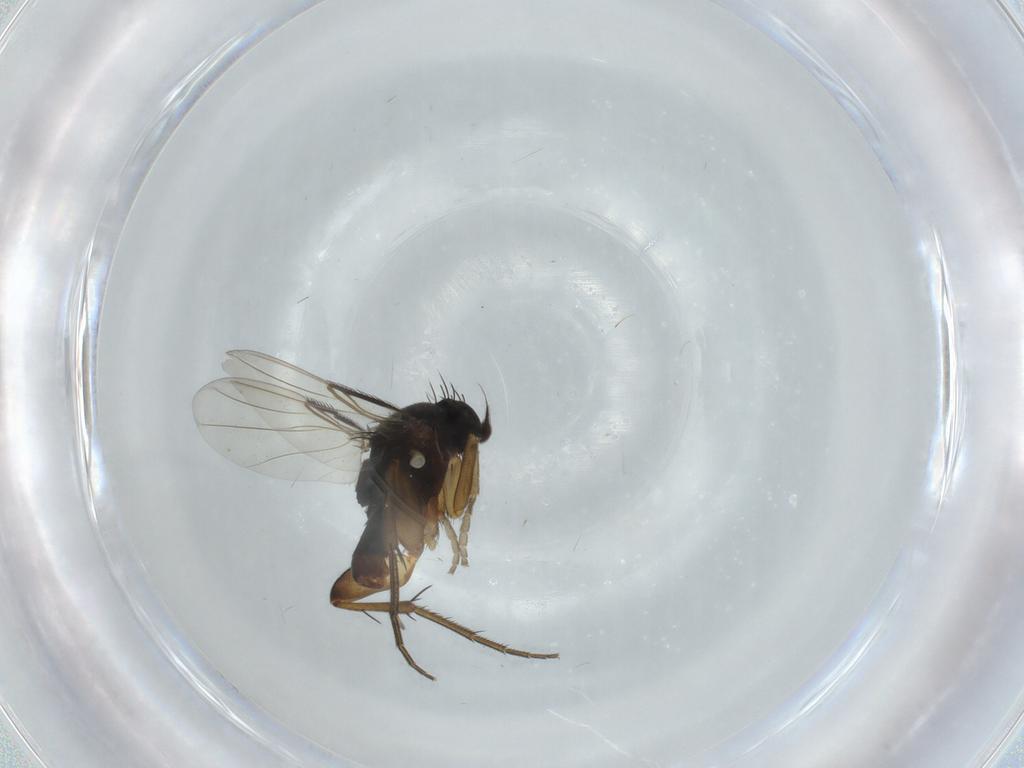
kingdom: Animalia
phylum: Arthropoda
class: Insecta
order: Diptera
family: Phoridae
